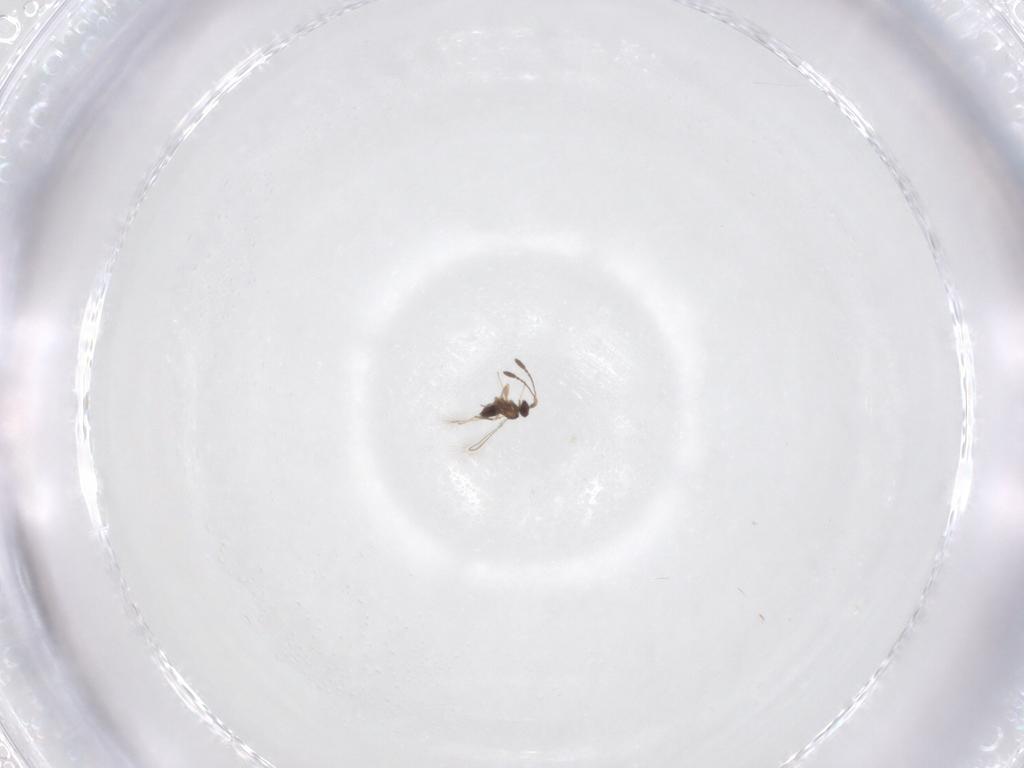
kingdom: Animalia
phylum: Arthropoda
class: Insecta
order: Hymenoptera
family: Mymaridae
